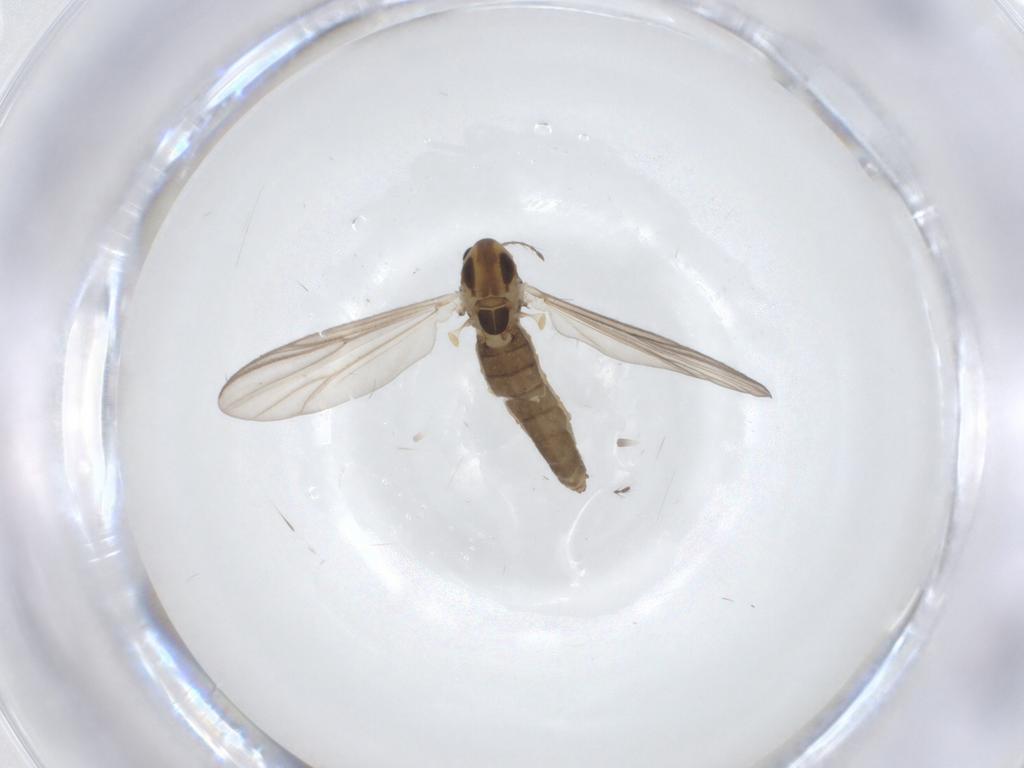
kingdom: Animalia
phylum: Arthropoda
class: Insecta
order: Diptera
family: Chironomidae
